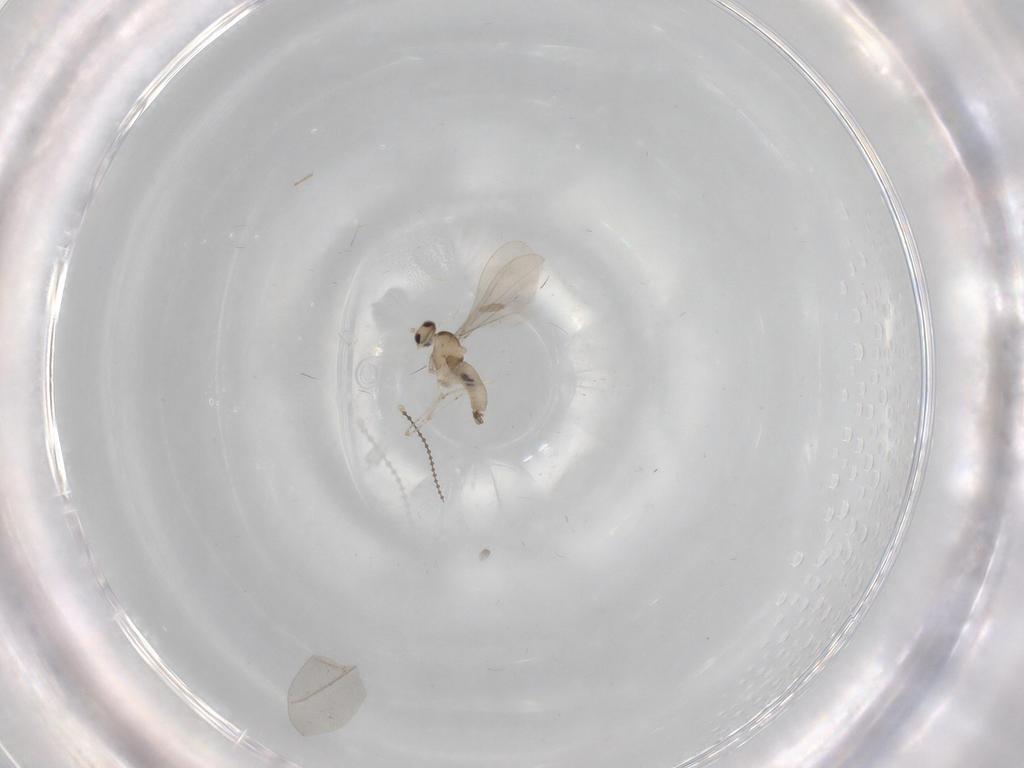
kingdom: Animalia
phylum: Arthropoda
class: Insecta
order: Diptera
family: Cecidomyiidae
